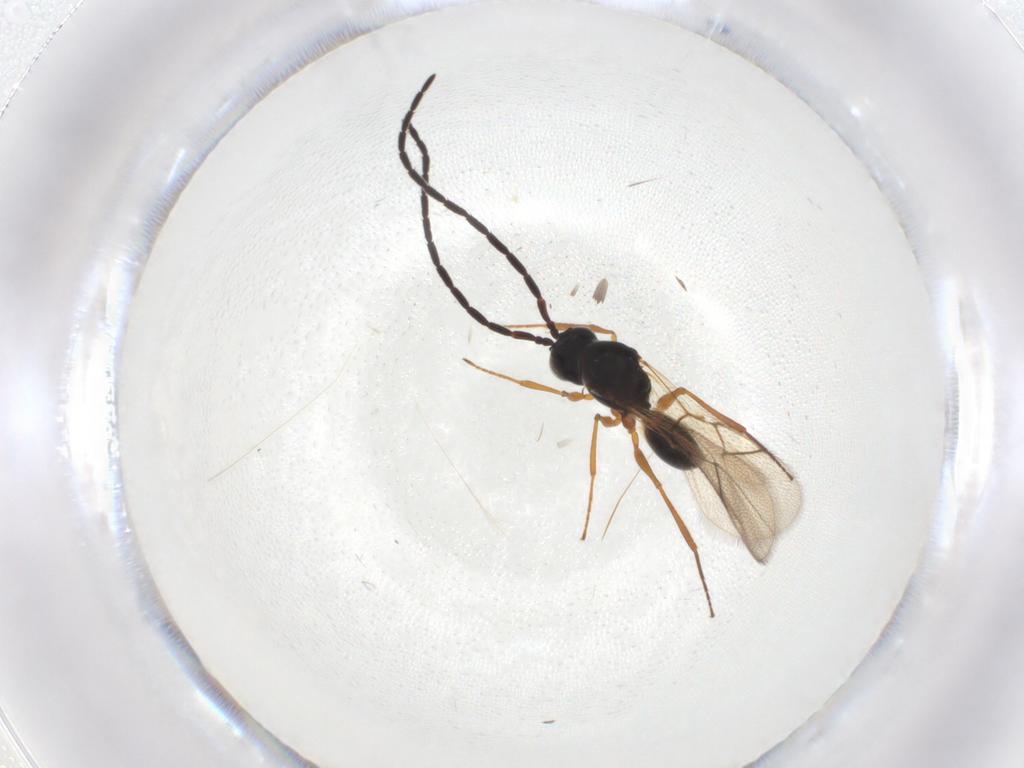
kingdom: Animalia
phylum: Arthropoda
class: Insecta
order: Hymenoptera
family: Figitidae
